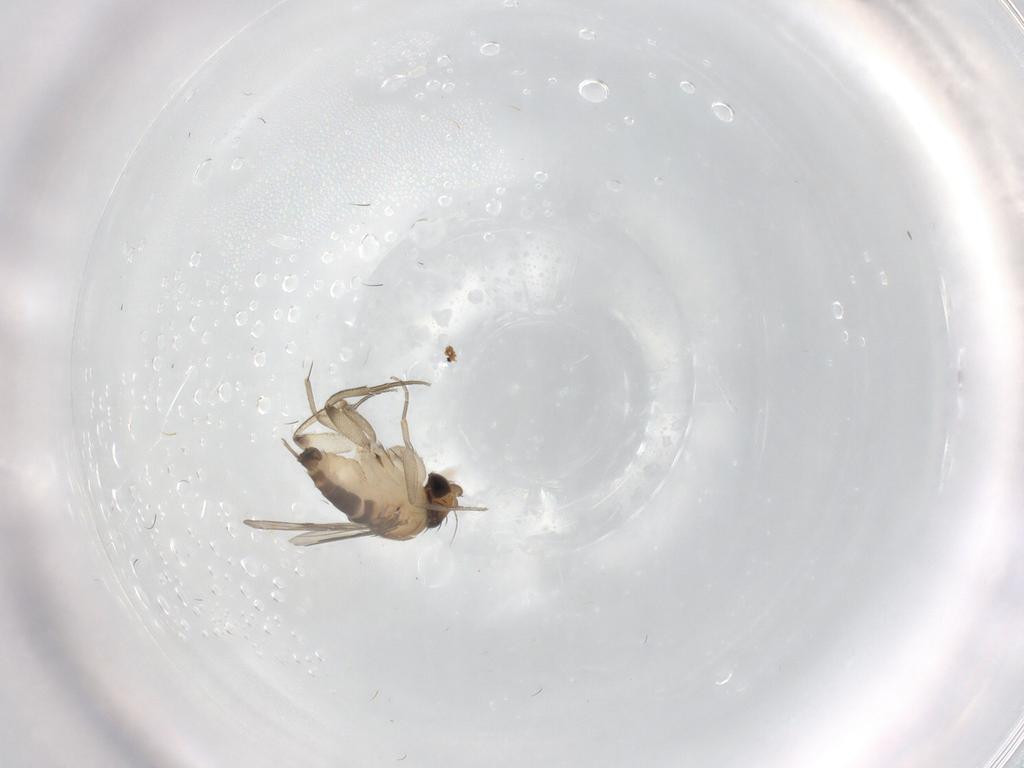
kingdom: Animalia
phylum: Arthropoda
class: Insecta
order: Diptera
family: Phoridae
